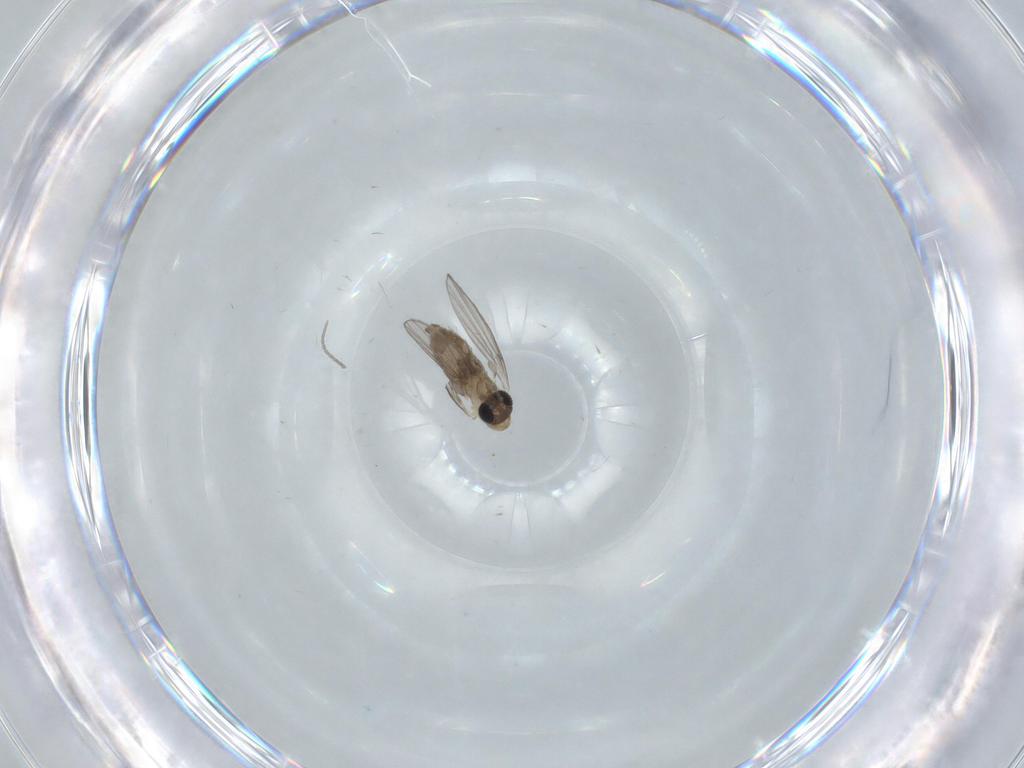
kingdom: Animalia
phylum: Arthropoda
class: Insecta
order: Diptera
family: Psychodidae
